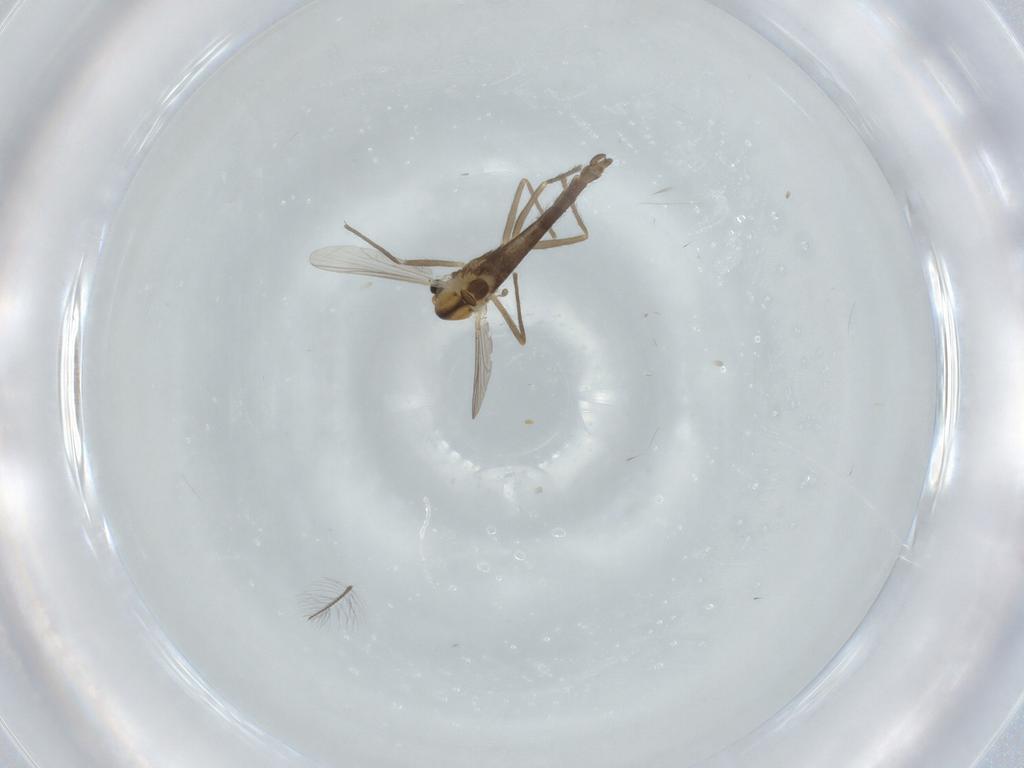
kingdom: Animalia
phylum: Arthropoda
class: Insecta
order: Diptera
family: Chironomidae
